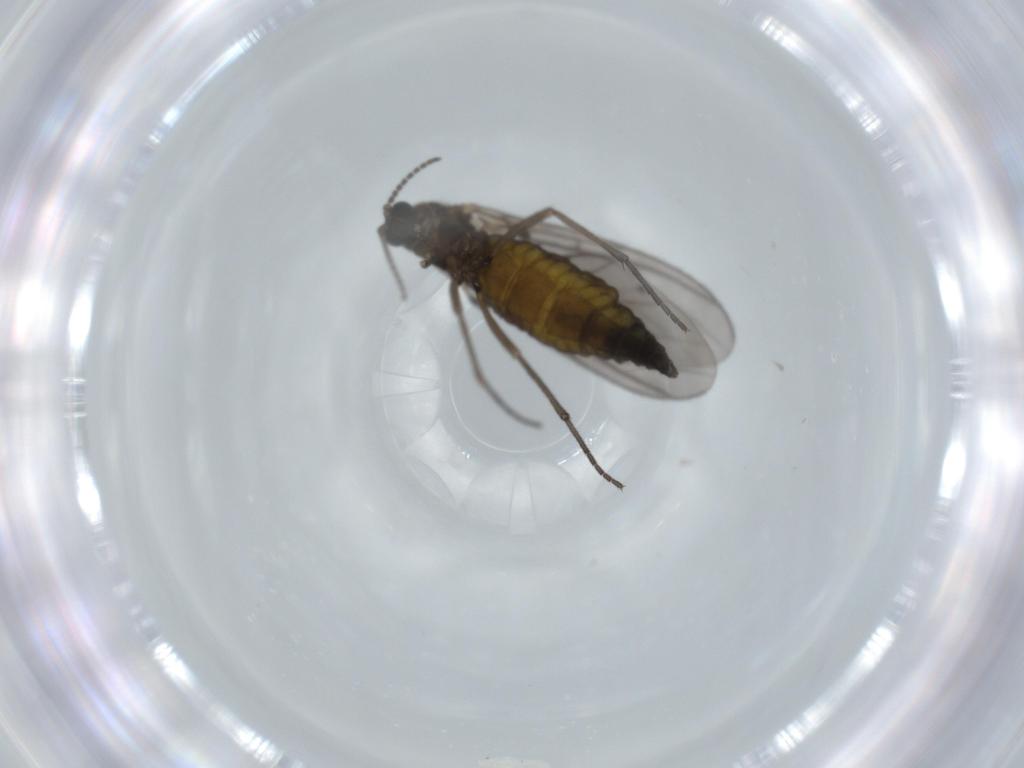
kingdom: Animalia
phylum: Arthropoda
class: Insecta
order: Diptera
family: Sciaridae
